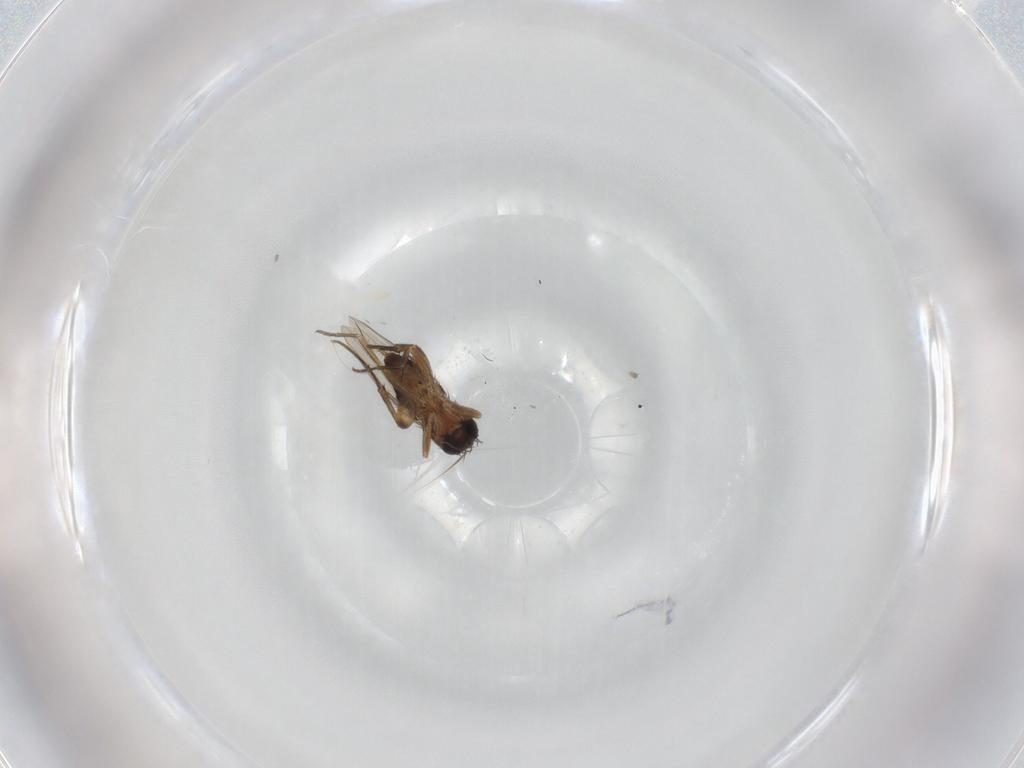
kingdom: Animalia
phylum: Arthropoda
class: Insecta
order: Diptera
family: Phoridae
